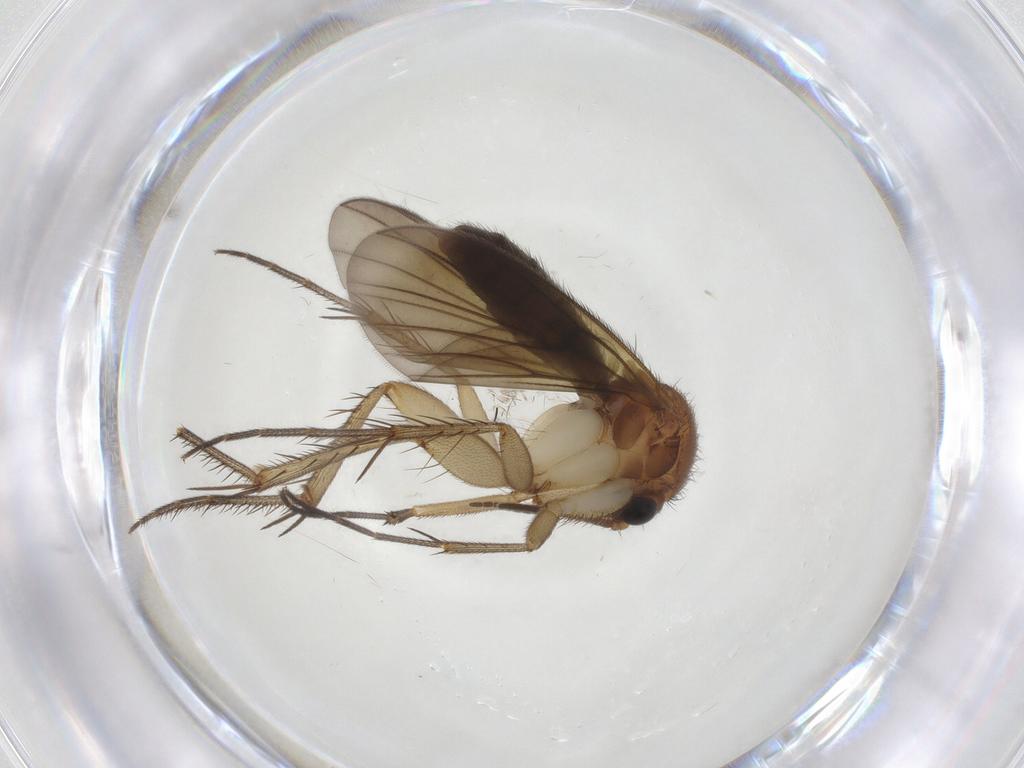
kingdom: Animalia
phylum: Arthropoda
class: Insecta
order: Diptera
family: Mycetophilidae
